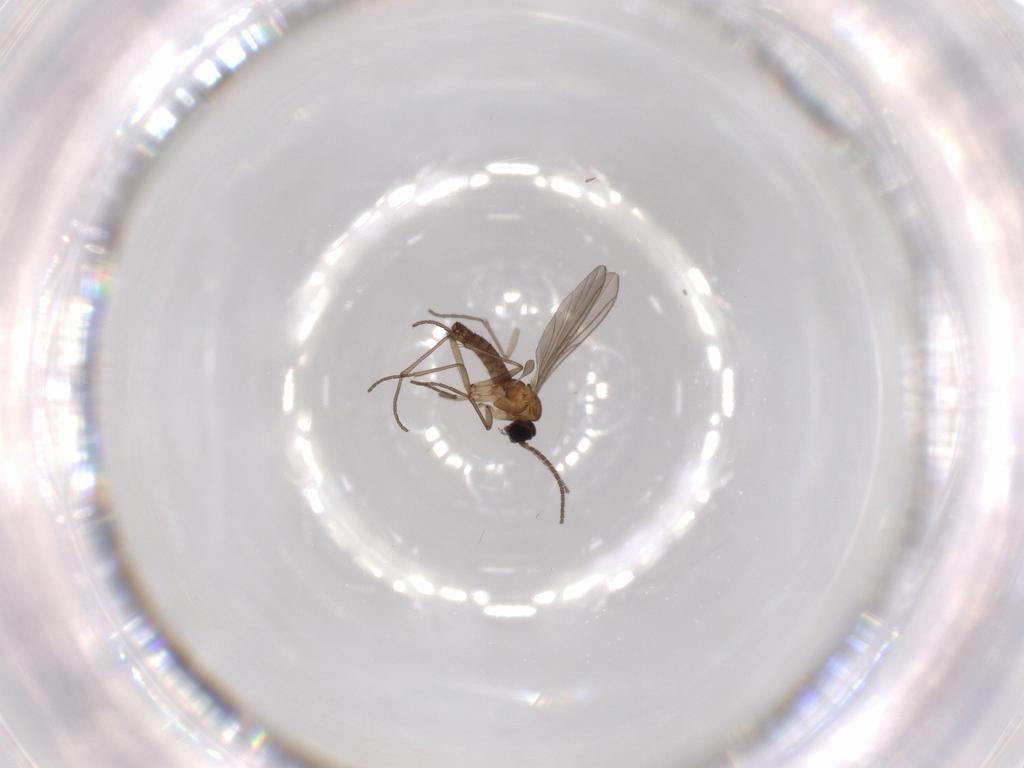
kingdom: Animalia
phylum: Arthropoda
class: Insecta
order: Diptera
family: Sciaridae
